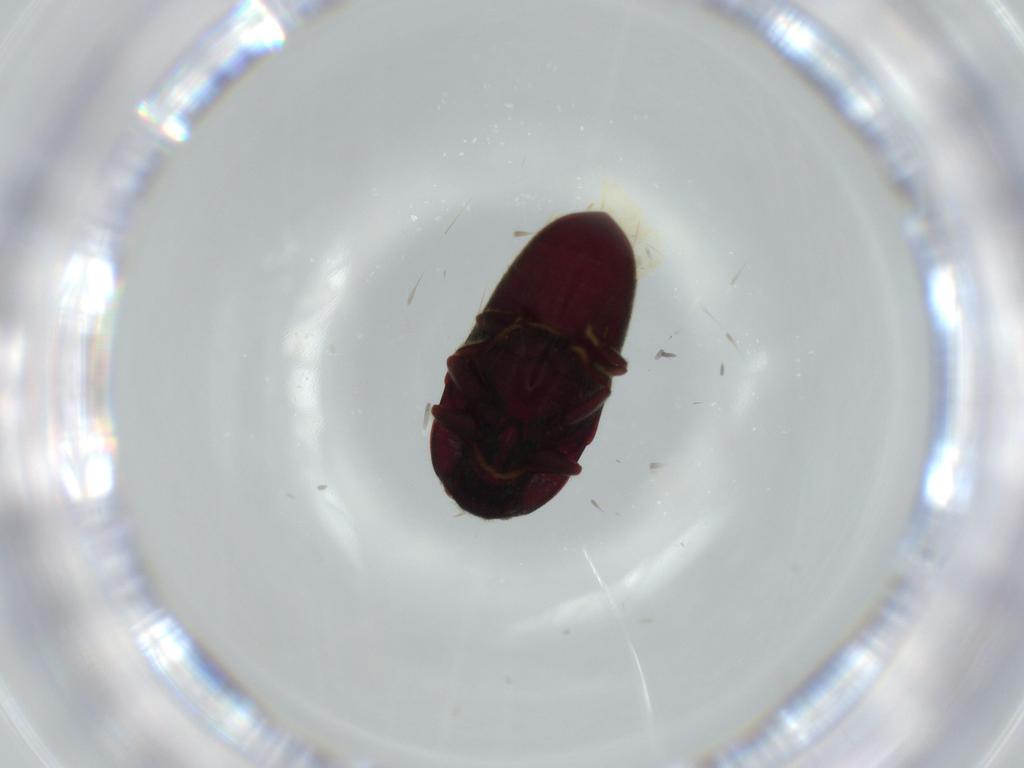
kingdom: Animalia
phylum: Arthropoda
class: Insecta
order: Coleoptera
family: Throscidae
